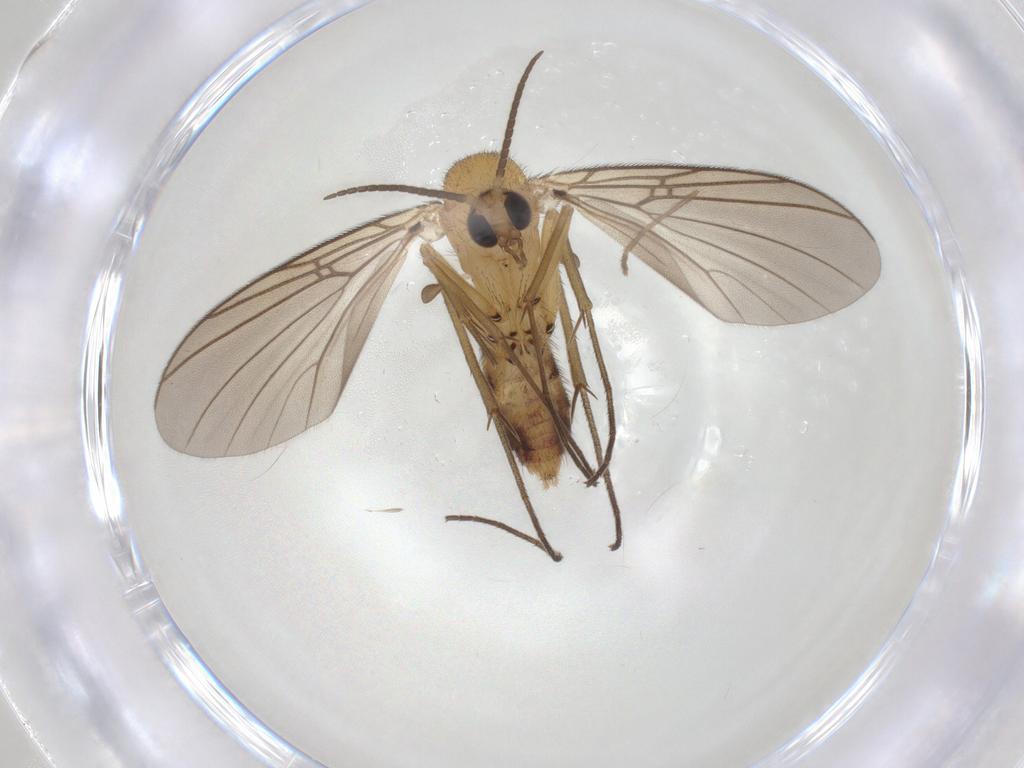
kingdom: Animalia
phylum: Arthropoda
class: Insecta
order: Diptera
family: Mycetophilidae
